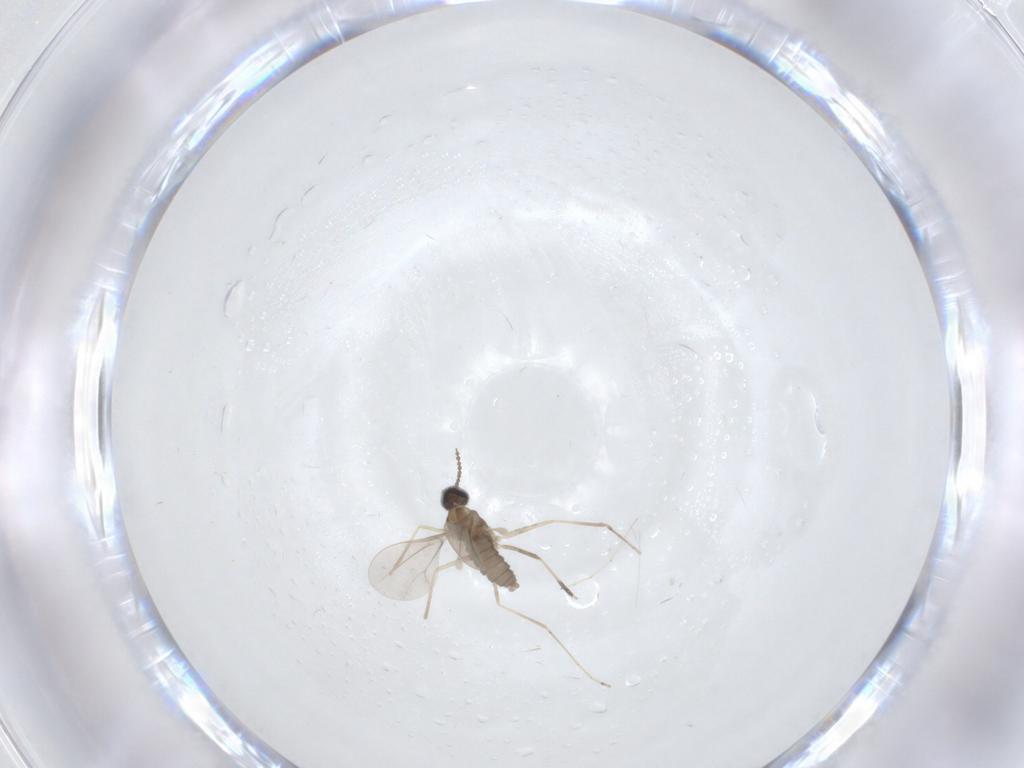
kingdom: Animalia
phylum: Arthropoda
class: Insecta
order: Diptera
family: Cecidomyiidae
